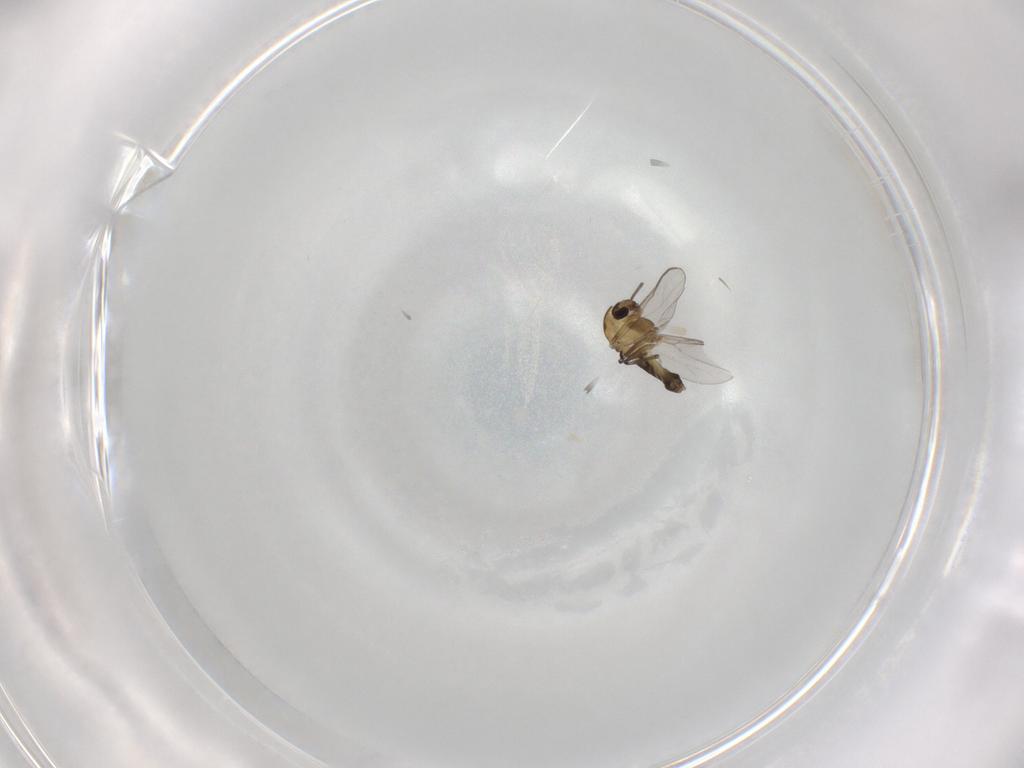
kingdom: Animalia
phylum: Arthropoda
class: Insecta
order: Diptera
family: Chironomidae
